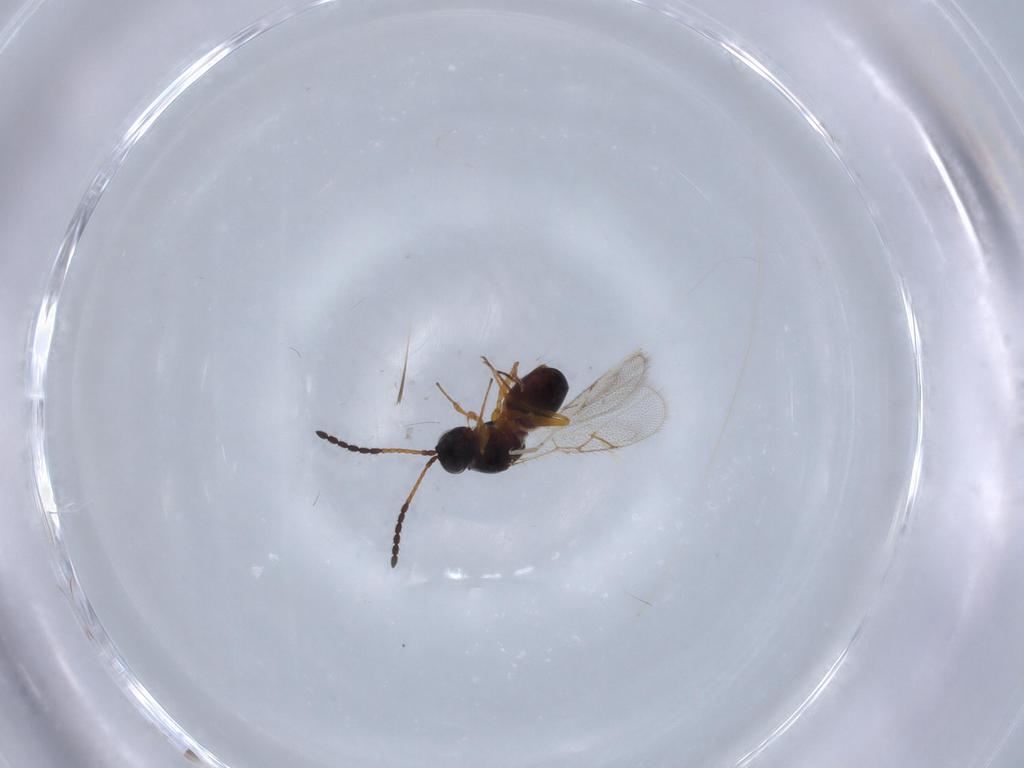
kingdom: Animalia
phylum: Arthropoda
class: Insecta
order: Hymenoptera
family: Figitidae
